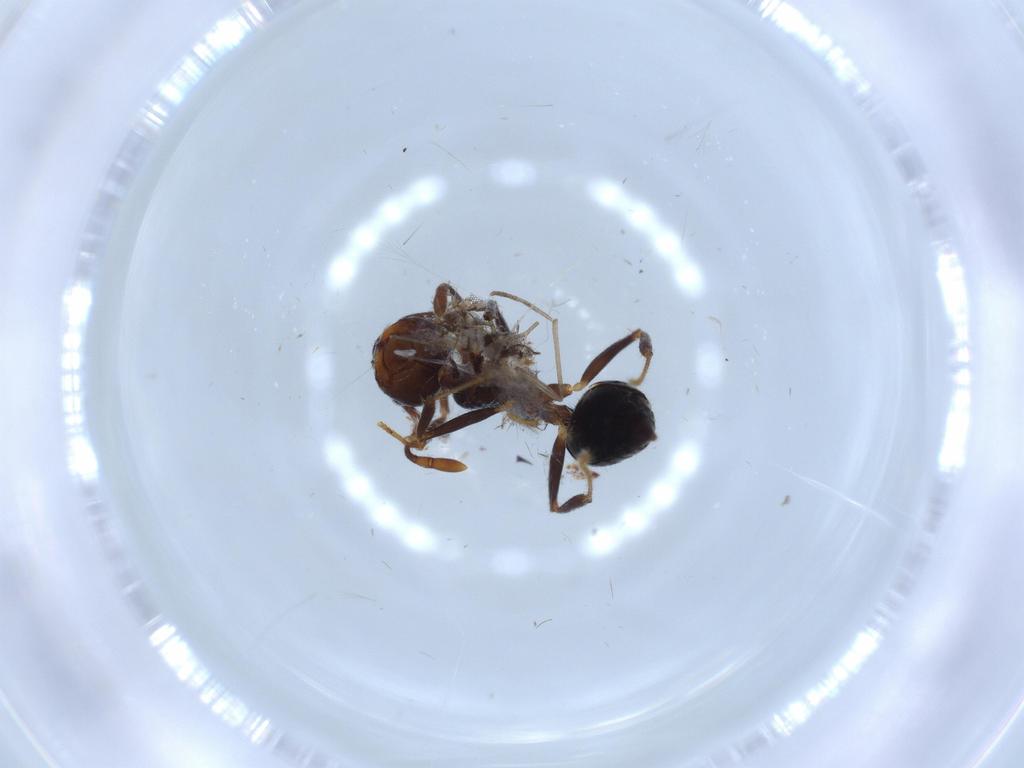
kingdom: Animalia
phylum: Arthropoda
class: Insecta
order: Hymenoptera
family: Formicidae
